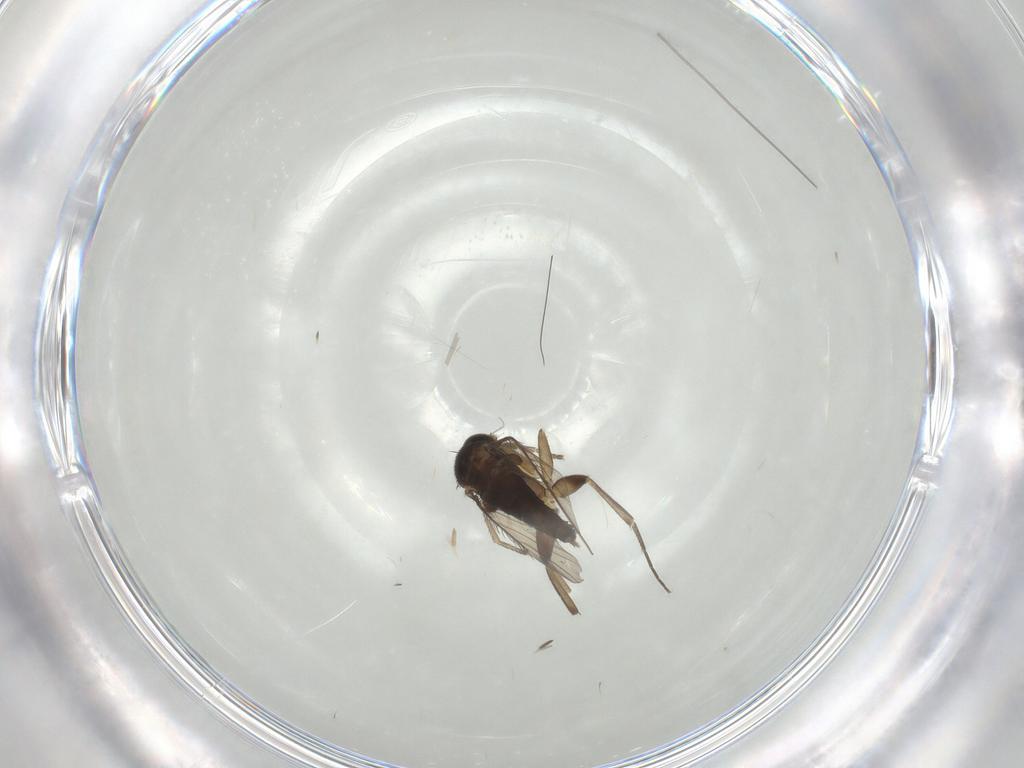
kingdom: Animalia
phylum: Arthropoda
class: Insecta
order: Diptera
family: Phoridae
